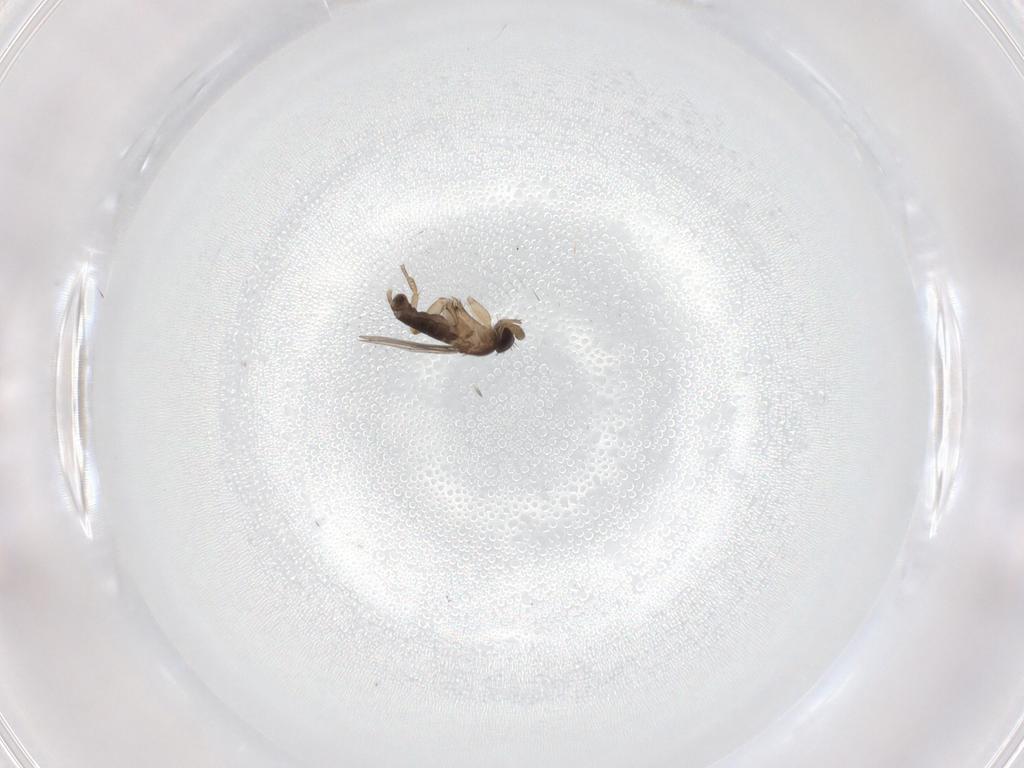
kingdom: Animalia
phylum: Arthropoda
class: Insecta
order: Diptera
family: Phoridae
